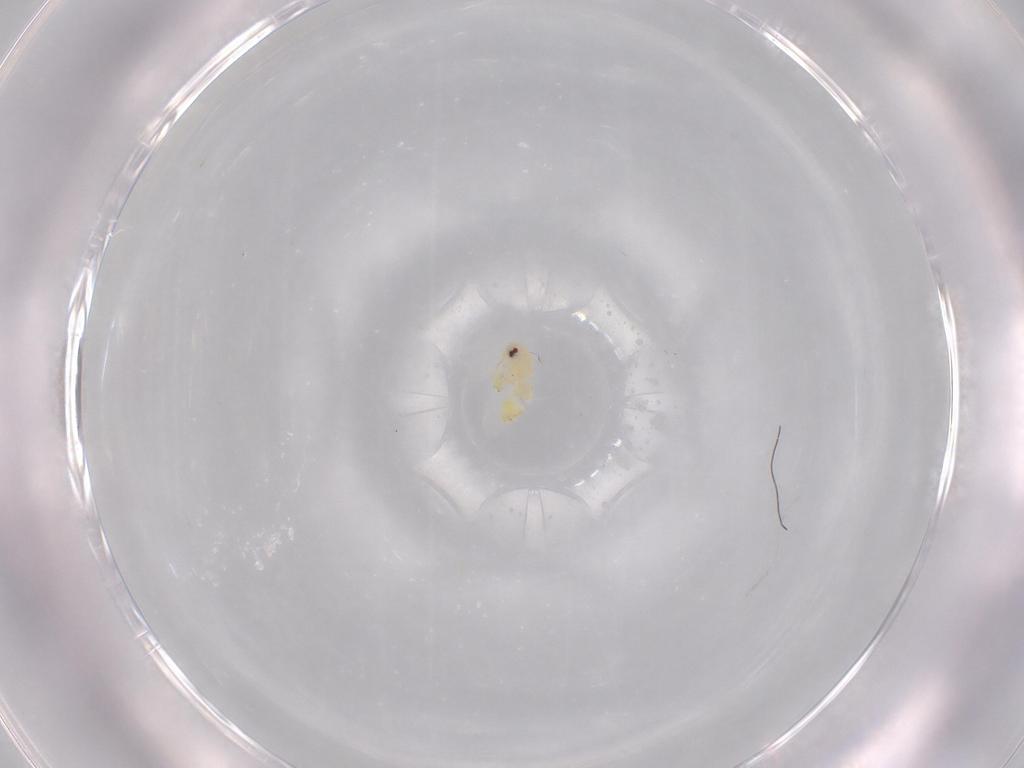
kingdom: Animalia
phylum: Arthropoda
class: Insecta
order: Hemiptera
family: Aleyrodidae
